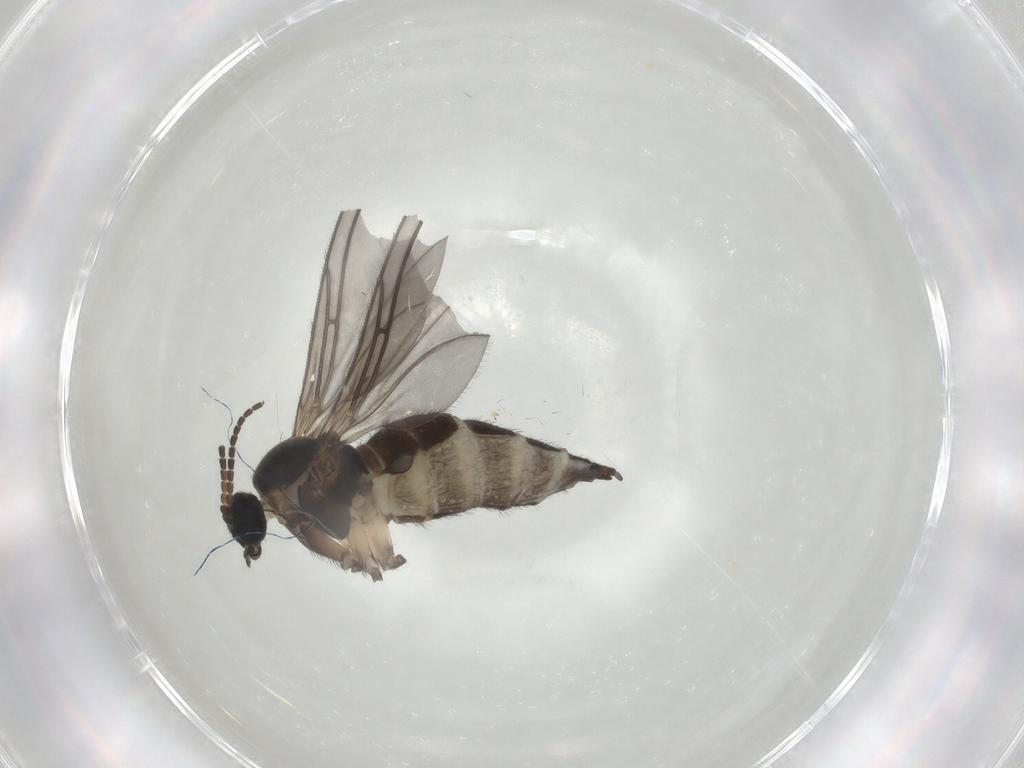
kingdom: Animalia
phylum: Arthropoda
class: Insecta
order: Diptera
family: Sciaridae
